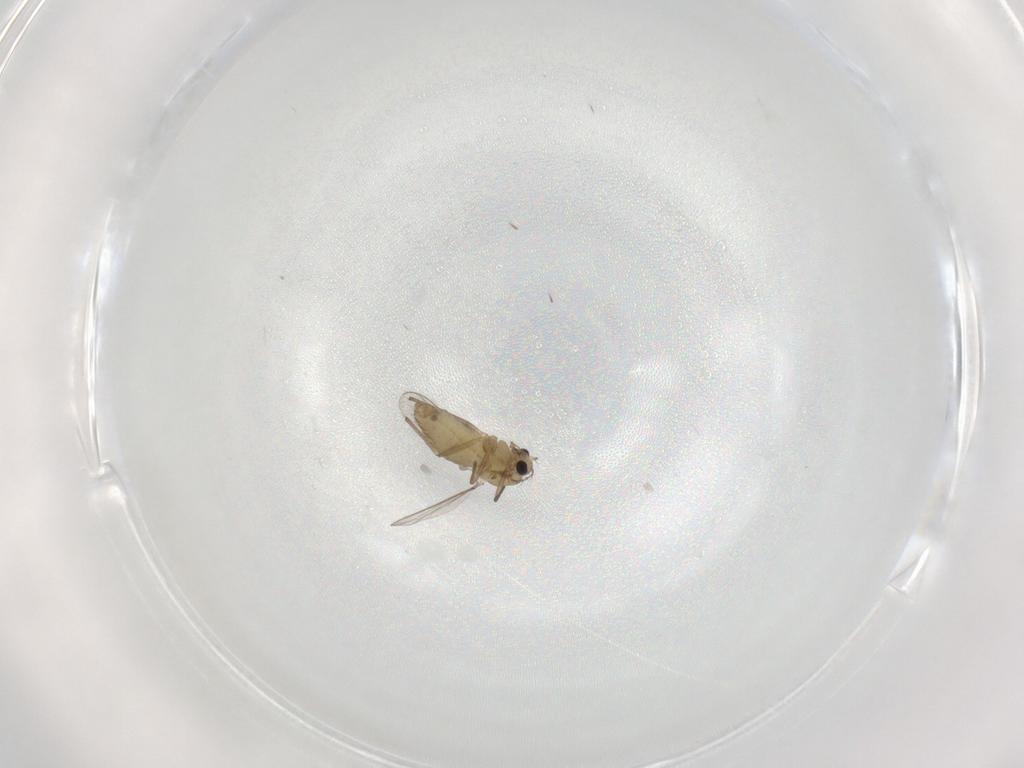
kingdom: Animalia
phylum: Arthropoda
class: Insecta
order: Diptera
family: Chironomidae
